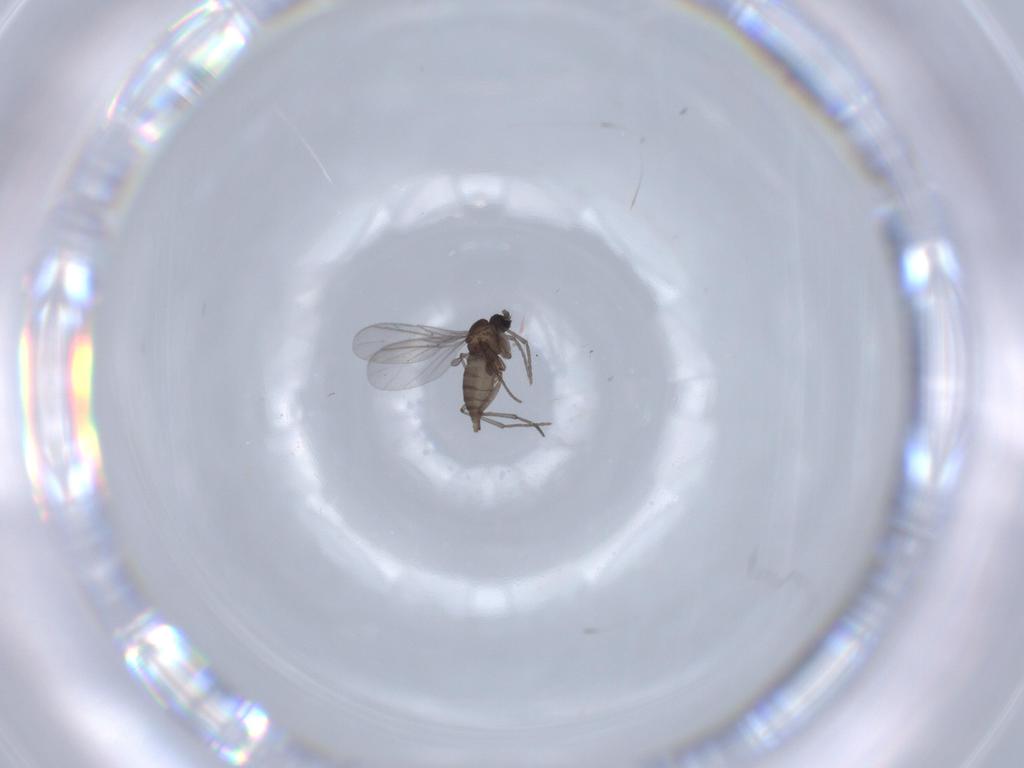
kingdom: Animalia
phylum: Arthropoda
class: Insecta
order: Diptera
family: Sciaridae
